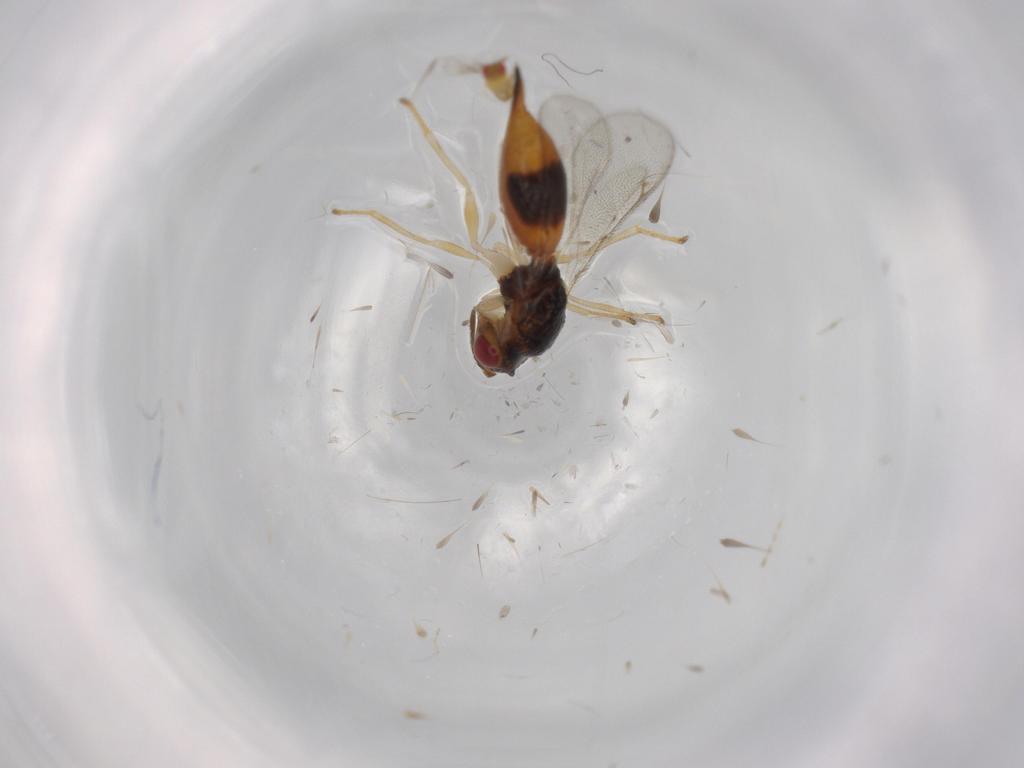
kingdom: Animalia
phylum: Arthropoda
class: Insecta
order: Hymenoptera
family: Eurytomidae
